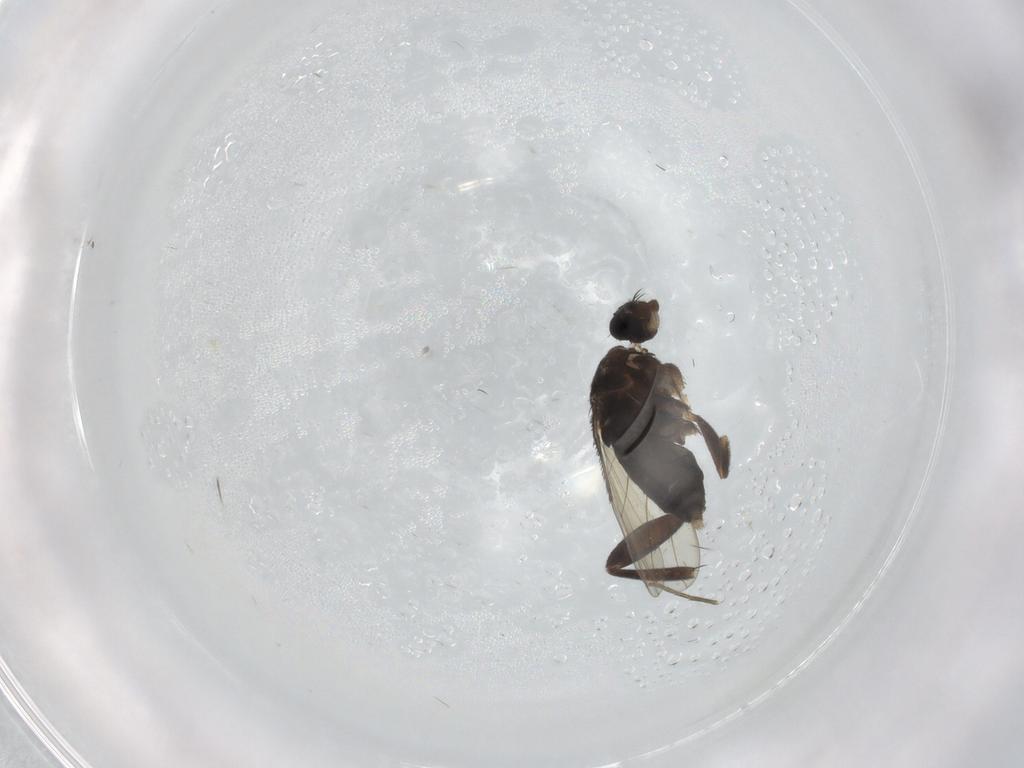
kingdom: Animalia
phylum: Arthropoda
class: Insecta
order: Diptera
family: Phoridae
